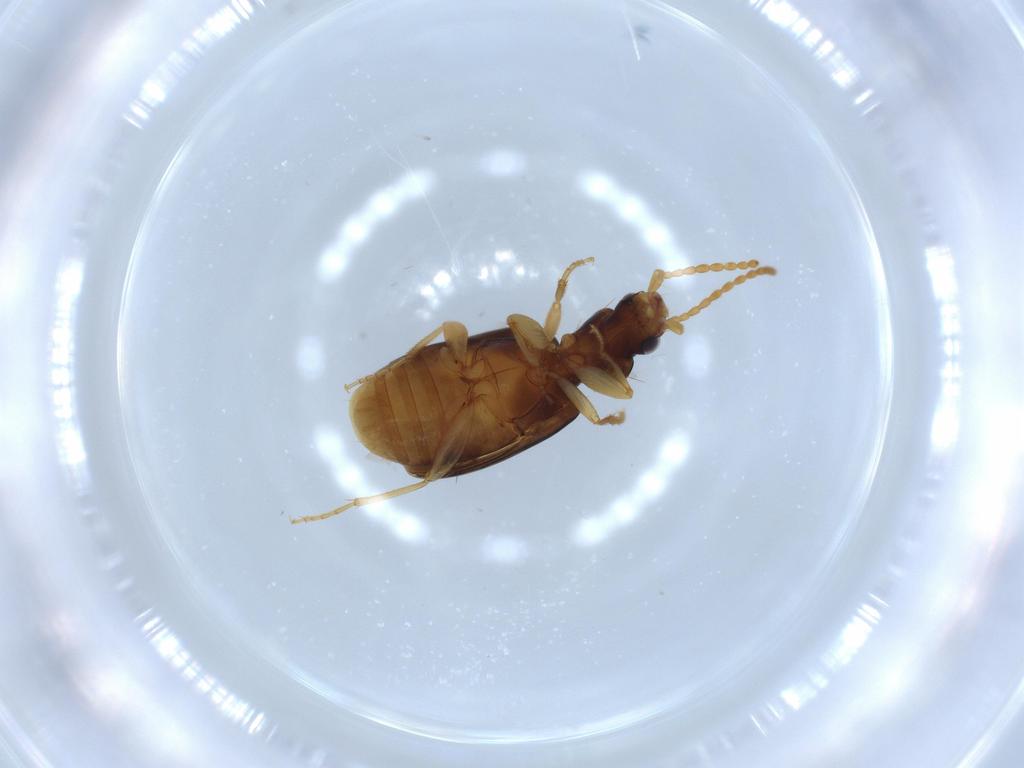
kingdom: Animalia
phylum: Arthropoda
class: Insecta
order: Coleoptera
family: Carabidae
